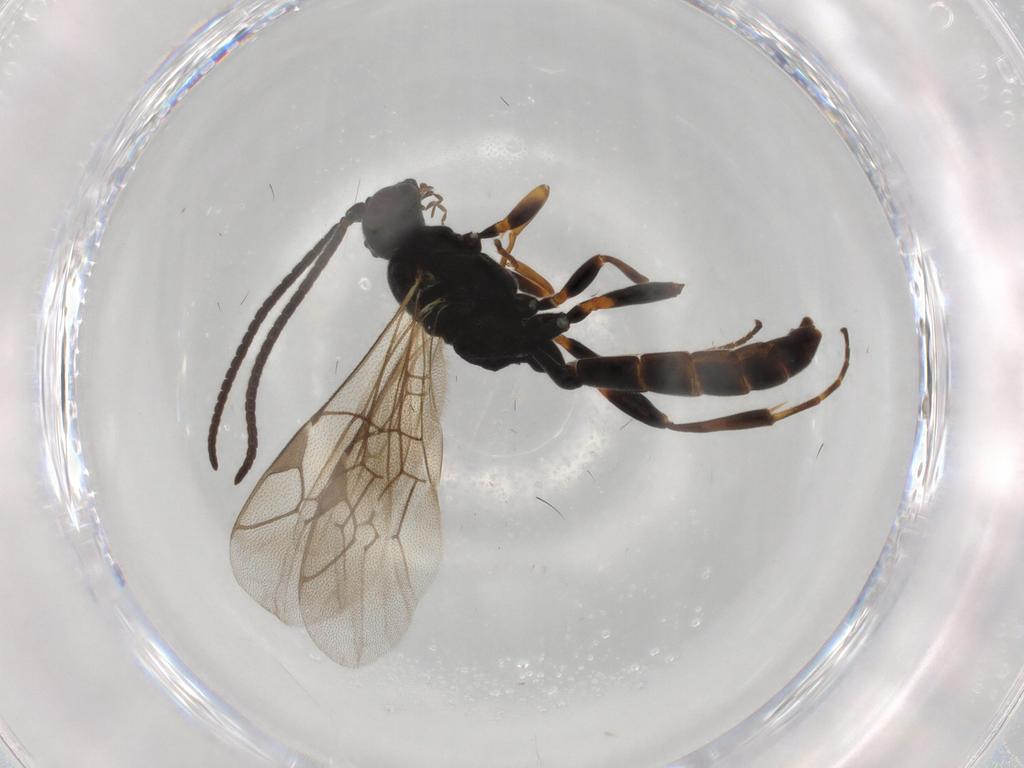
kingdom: Animalia
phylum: Arthropoda
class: Insecta
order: Hymenoptera
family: Ichneumonidae
